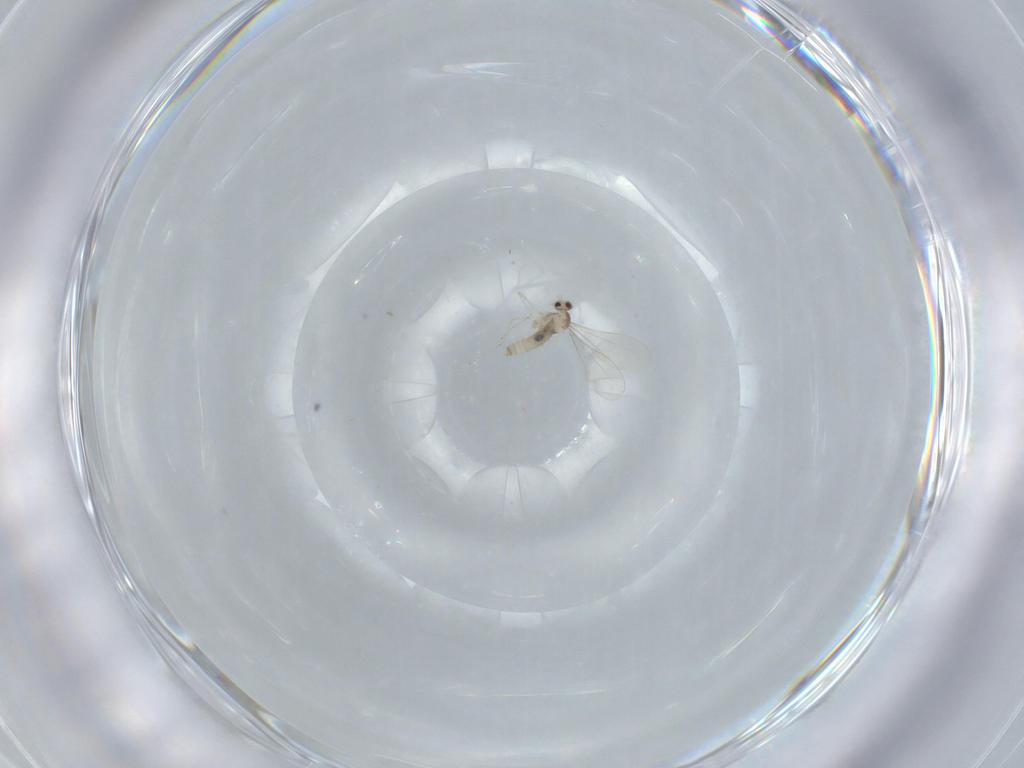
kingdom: Animalia
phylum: Arthropoda
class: Insecta
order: Diptera
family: Cecidomyiidae
